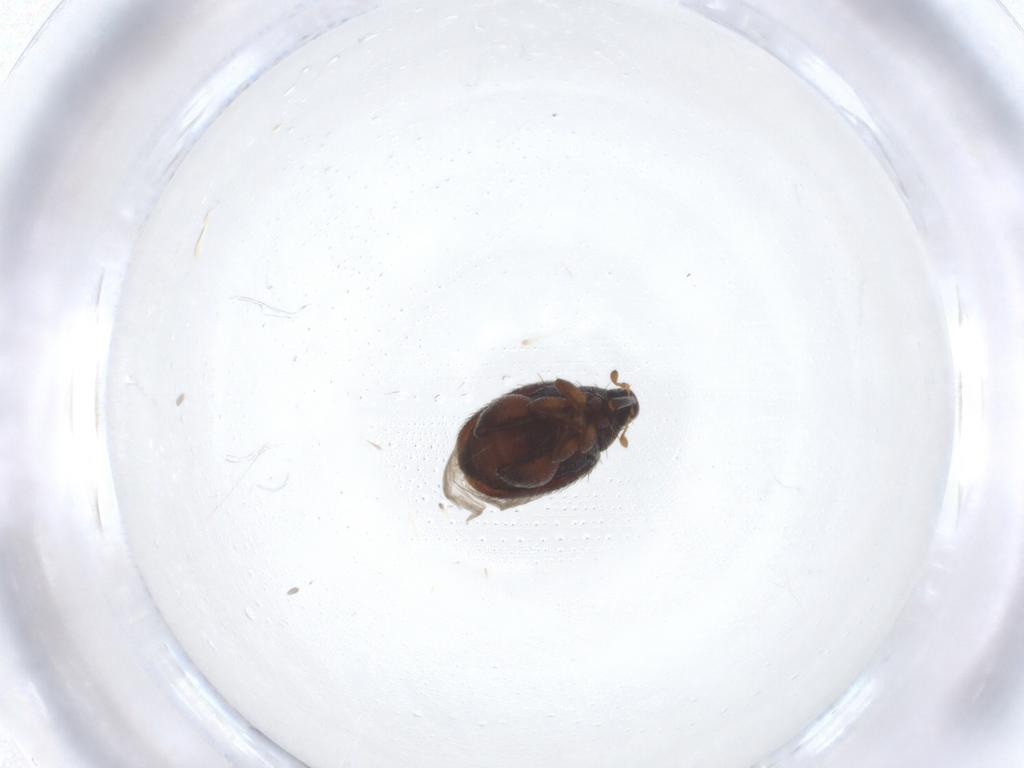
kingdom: Animalia
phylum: Arthropoda
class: Insecta
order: Coleoptera
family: Curculionidae
